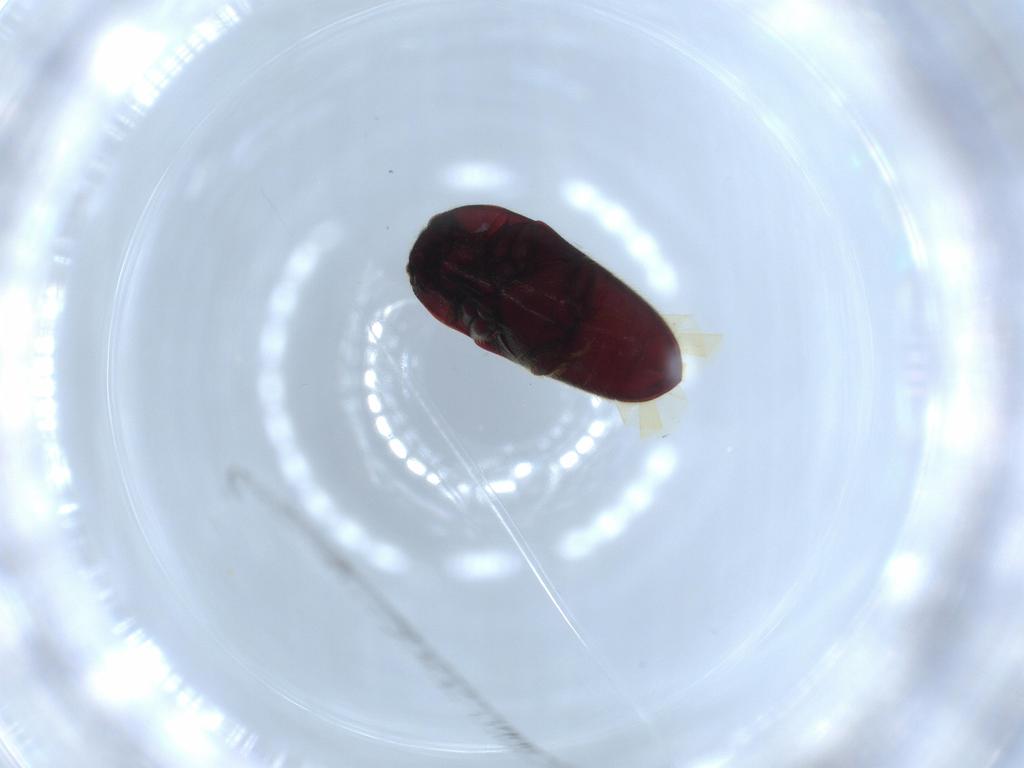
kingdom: Animalia
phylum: Arthropoda
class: Insecta
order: Coleoptera
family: Throscidae
